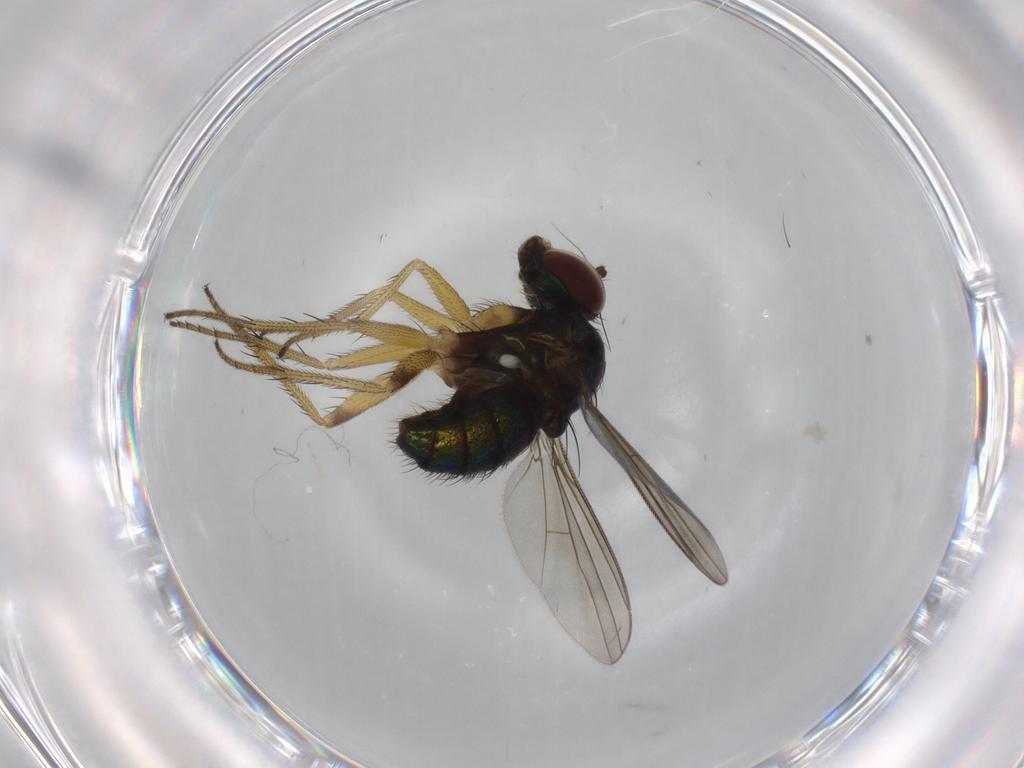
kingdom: Animalia
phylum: Arthropoda
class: Insecta
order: Diptera
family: Dolichopodidae
